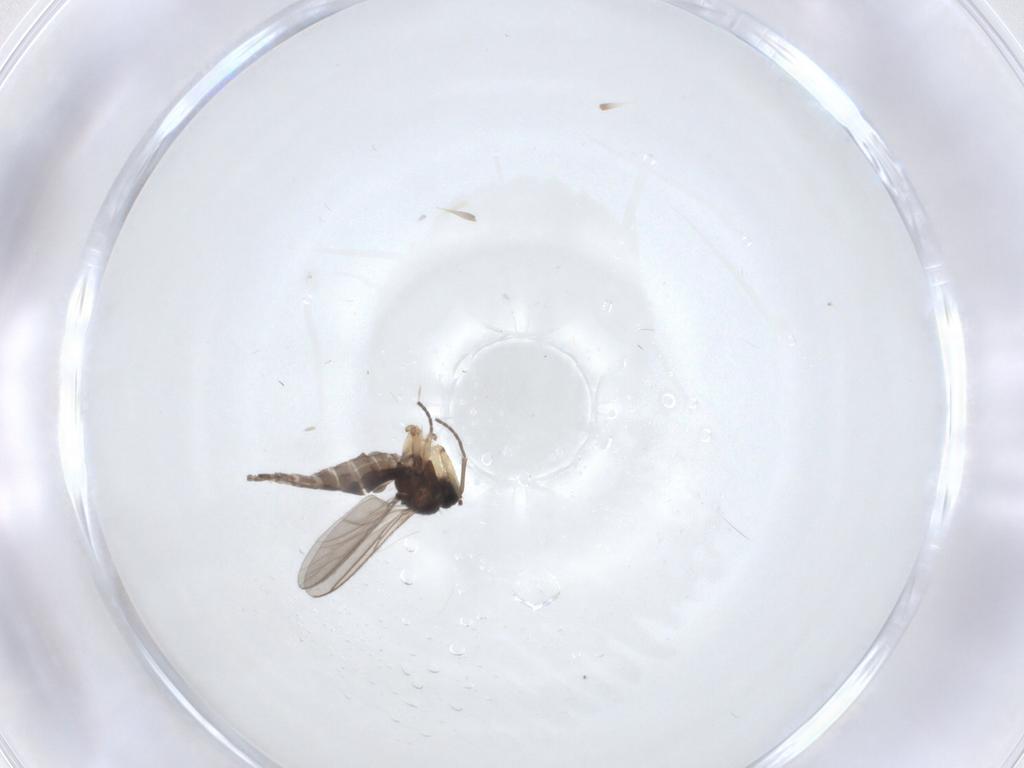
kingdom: Animalia
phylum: Arthropoda
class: Insecta
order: Diptera
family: Sciaridae
